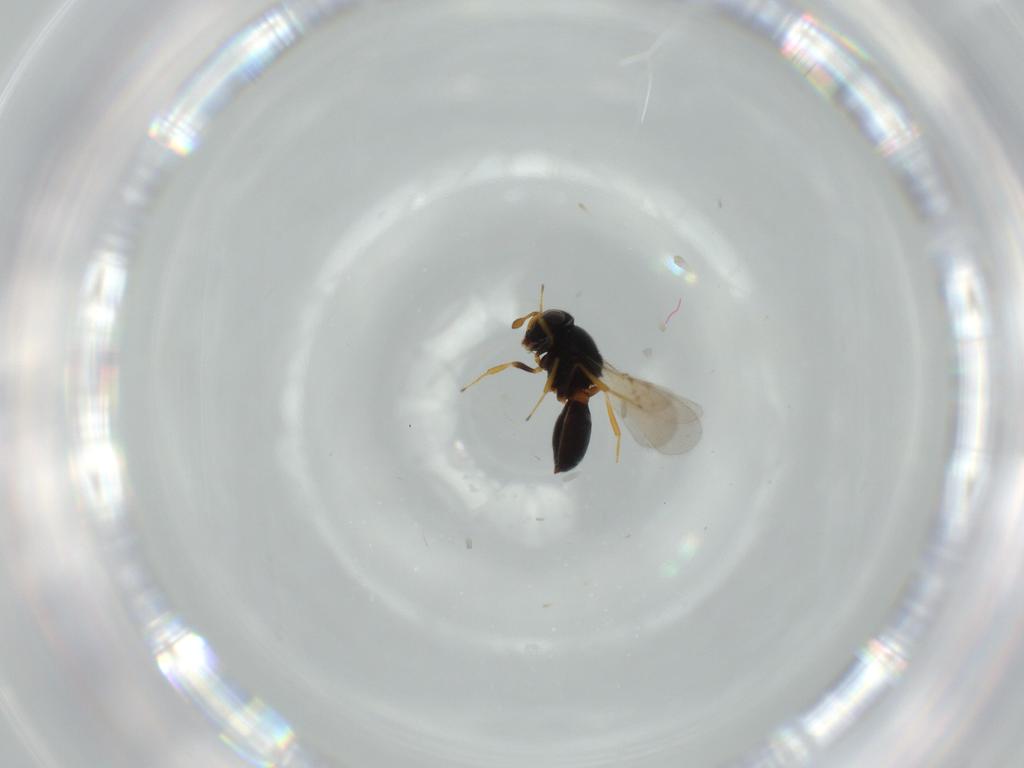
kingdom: Animalia
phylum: Arthropoda
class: Insecta
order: Hymenoptera
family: Scelionidae
